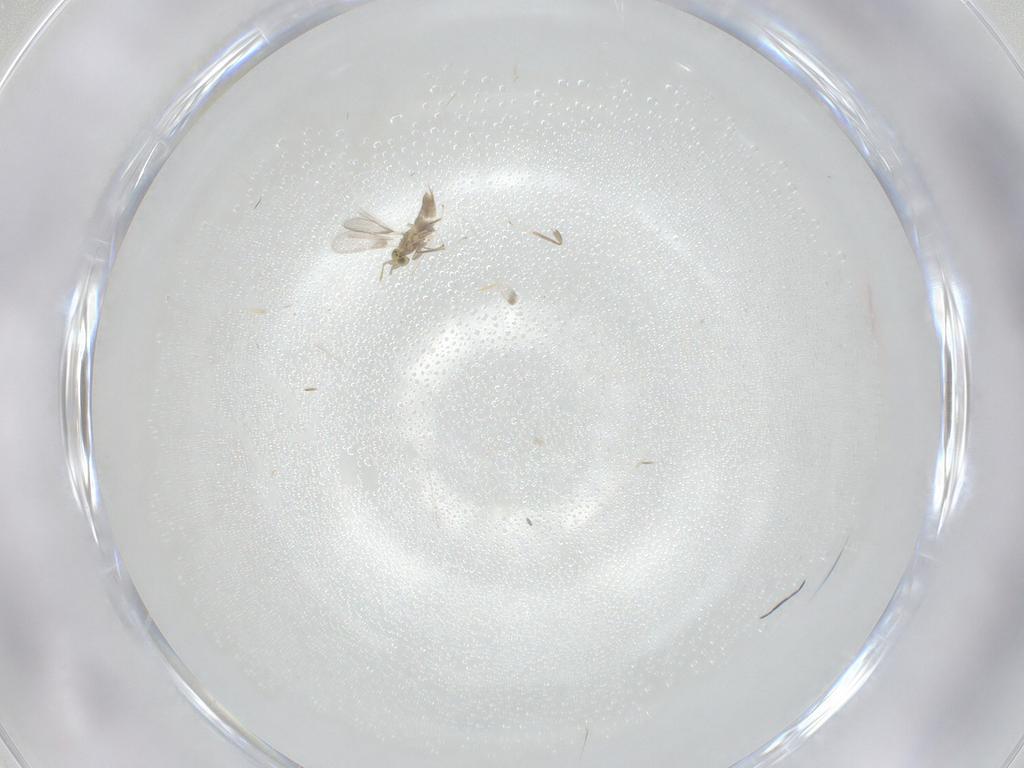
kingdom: Animalia
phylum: Arthropoda
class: Insecta
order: Hymenoptera
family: Aphelinidae
